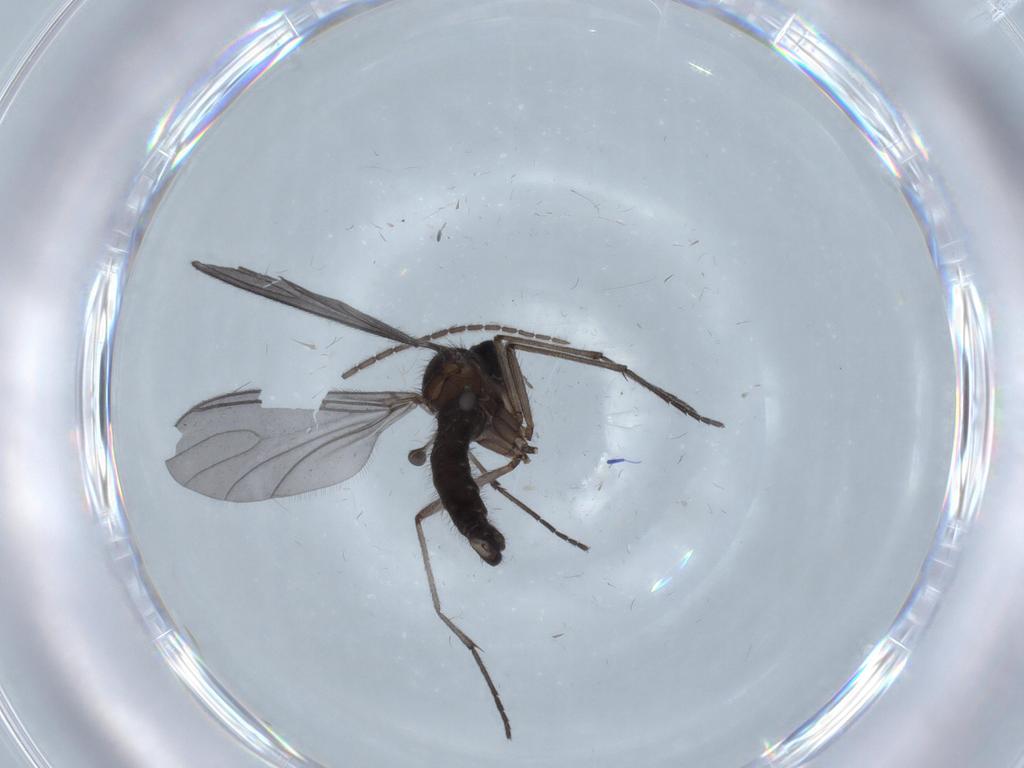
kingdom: Animalia
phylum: Arthropoda
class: Insecta
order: Diptera
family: Sciaridae
